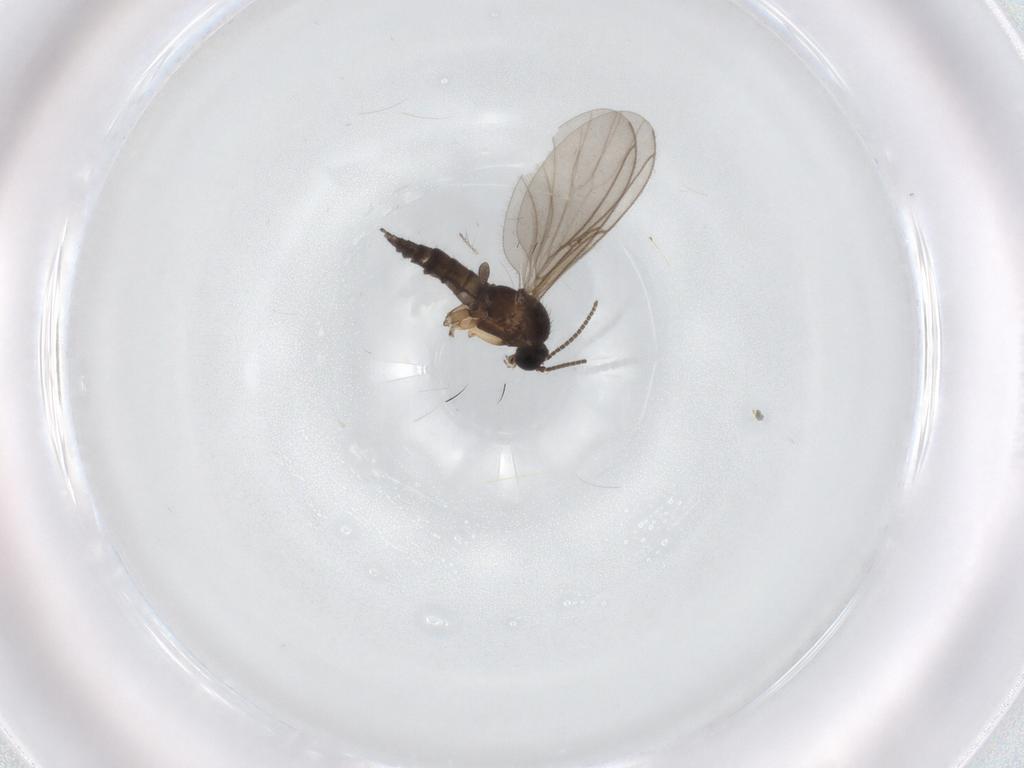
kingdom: Animalia
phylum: Arthropoda
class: Insecta
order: Diptera
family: Sciaridae
